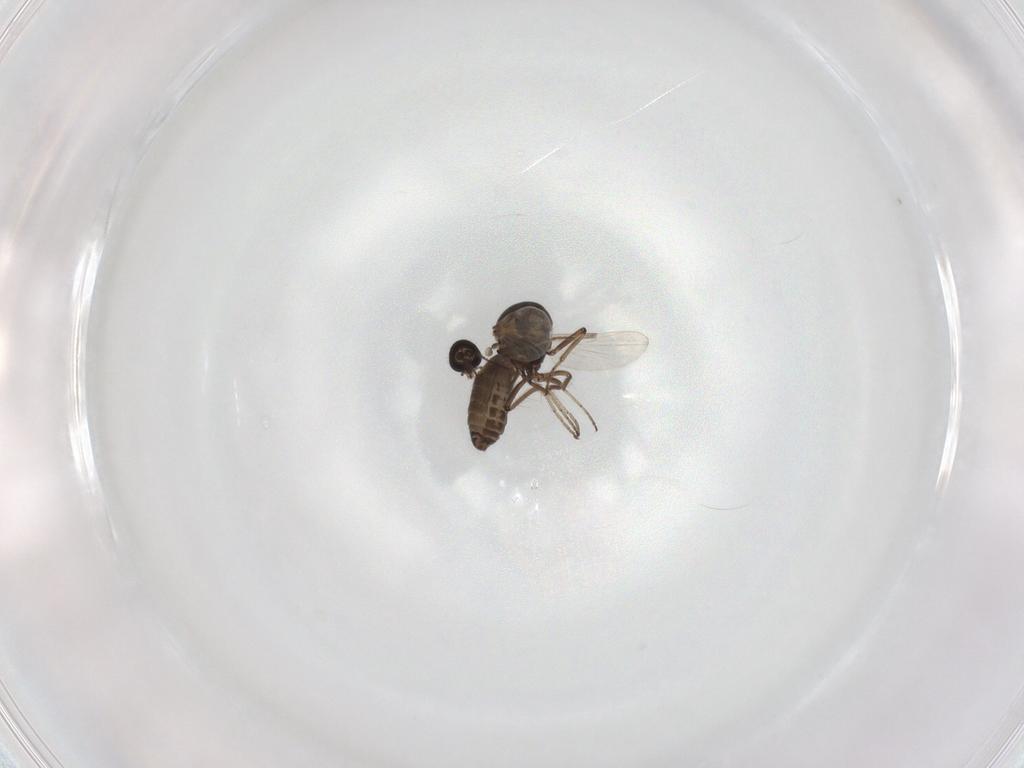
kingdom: Animalia
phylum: Arthropoda
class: Insecta
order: Diptera
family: Ceratopogonidae
